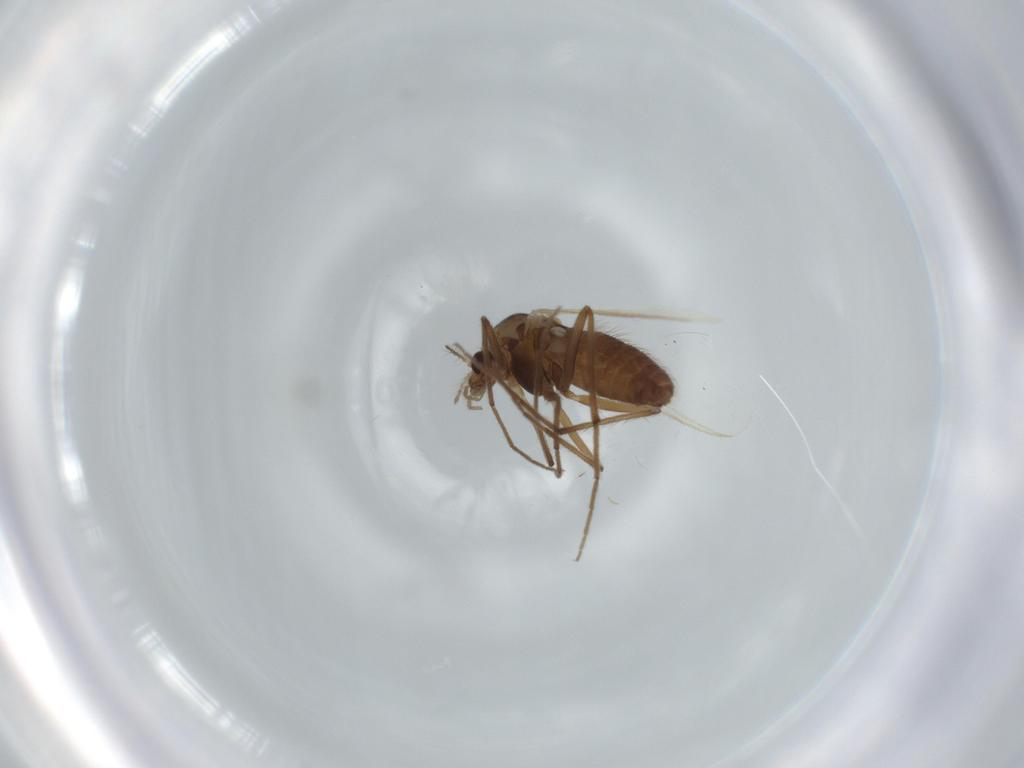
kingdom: Animalia
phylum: Arthropoda
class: Insecta
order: Diptera
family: Chironomidae
